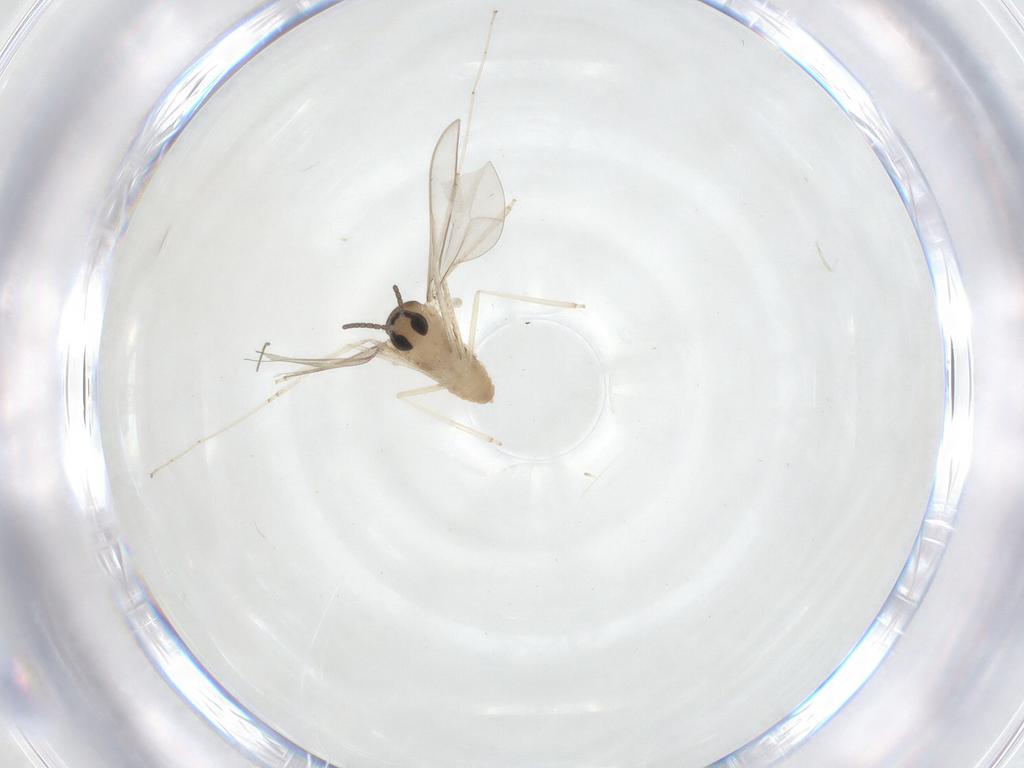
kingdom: Animalia
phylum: Arthropoda
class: Insecta
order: Diptera
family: Cecidomyiidae
